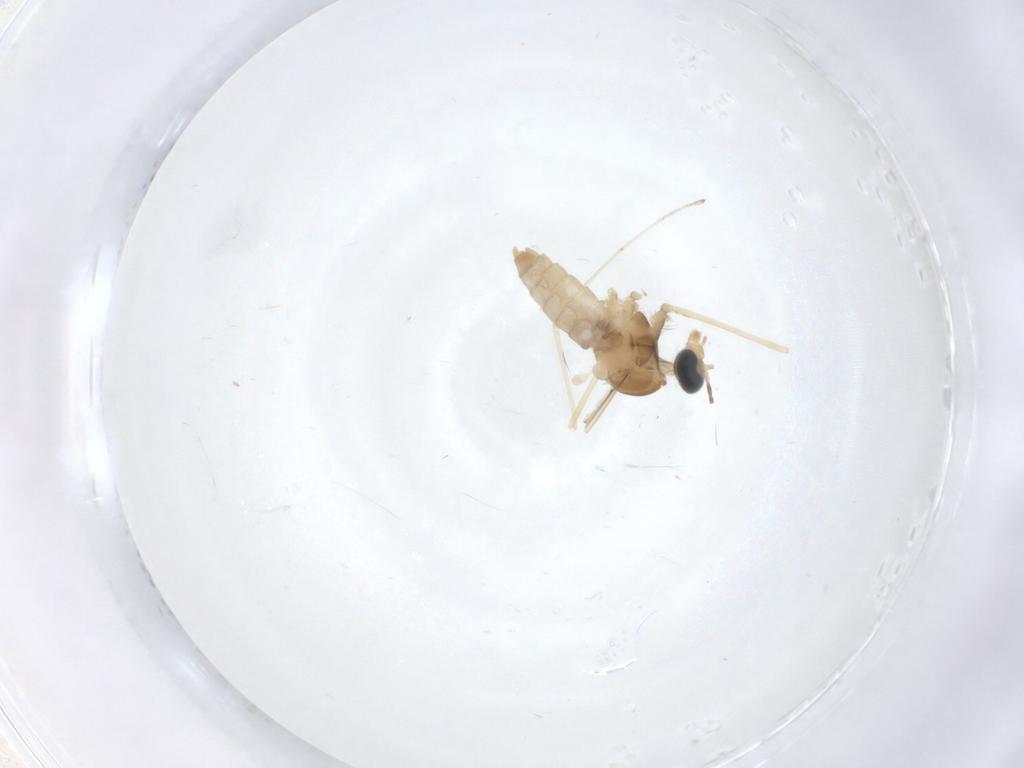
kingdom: Animalia
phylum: Arthropoda
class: Insecta
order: Diptera
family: Cecidomyiidae
